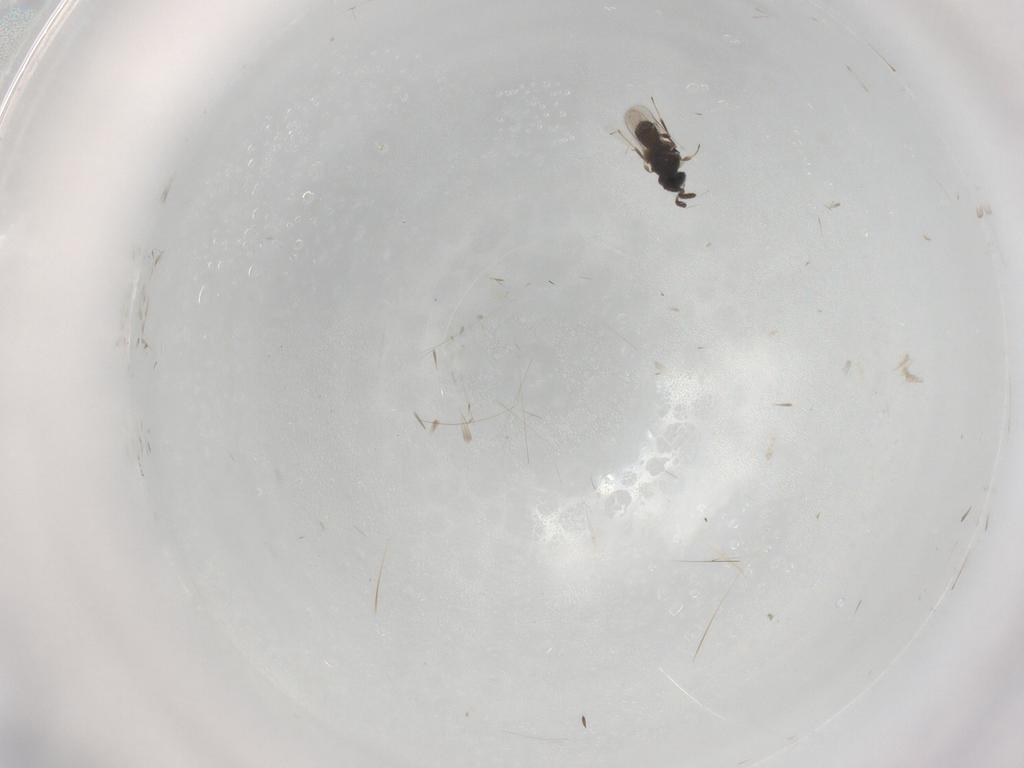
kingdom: Animalia
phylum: Arthropoda
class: Insecta
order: Hymenoptera
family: Scelionidae
